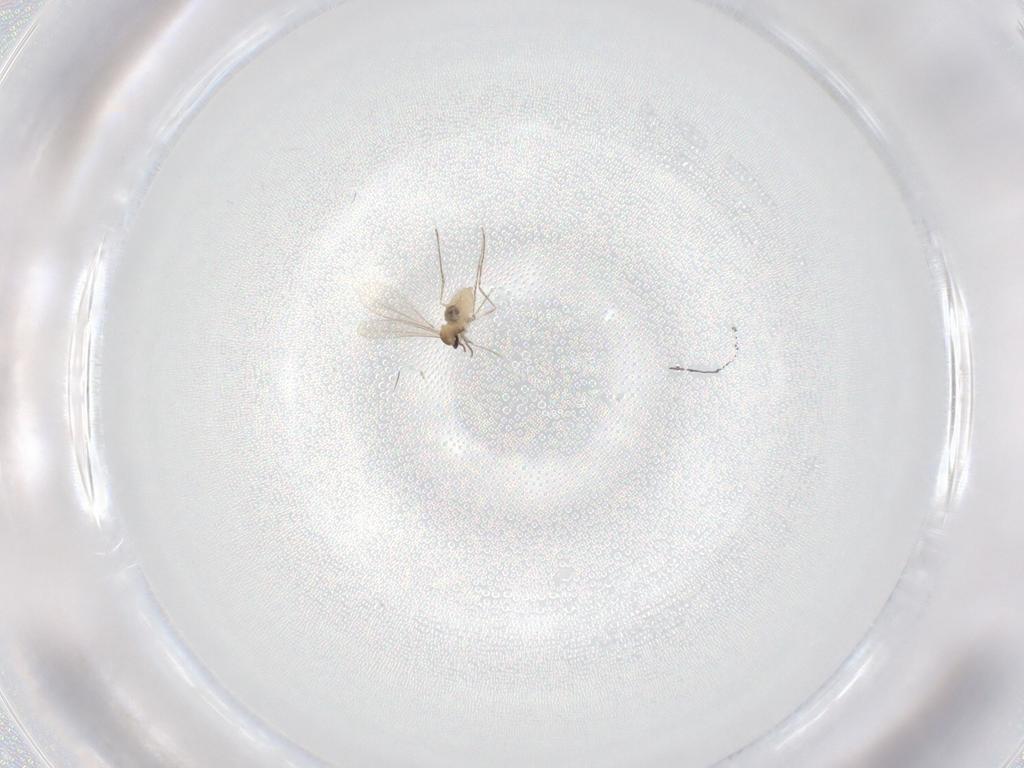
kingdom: Animalia
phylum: Arthropoda
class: Insecta
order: Diptera
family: Cecidomyiidae
